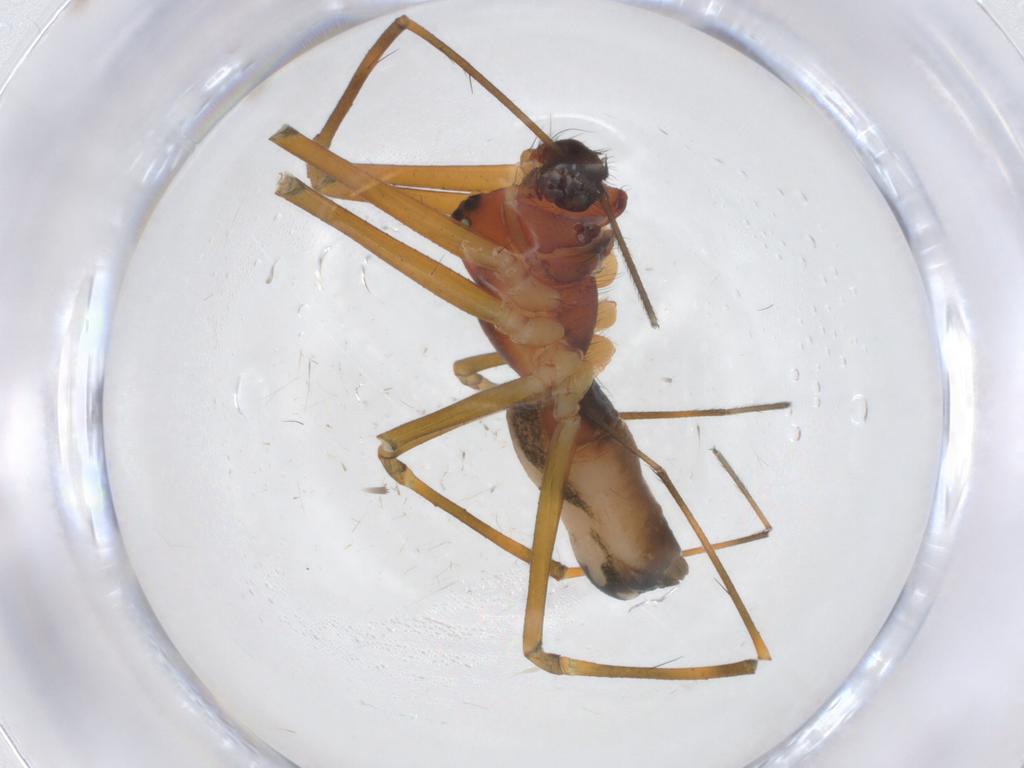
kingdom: Animalia
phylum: Arthropoda
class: Arachnida
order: Araneae
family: Linyphiidae
